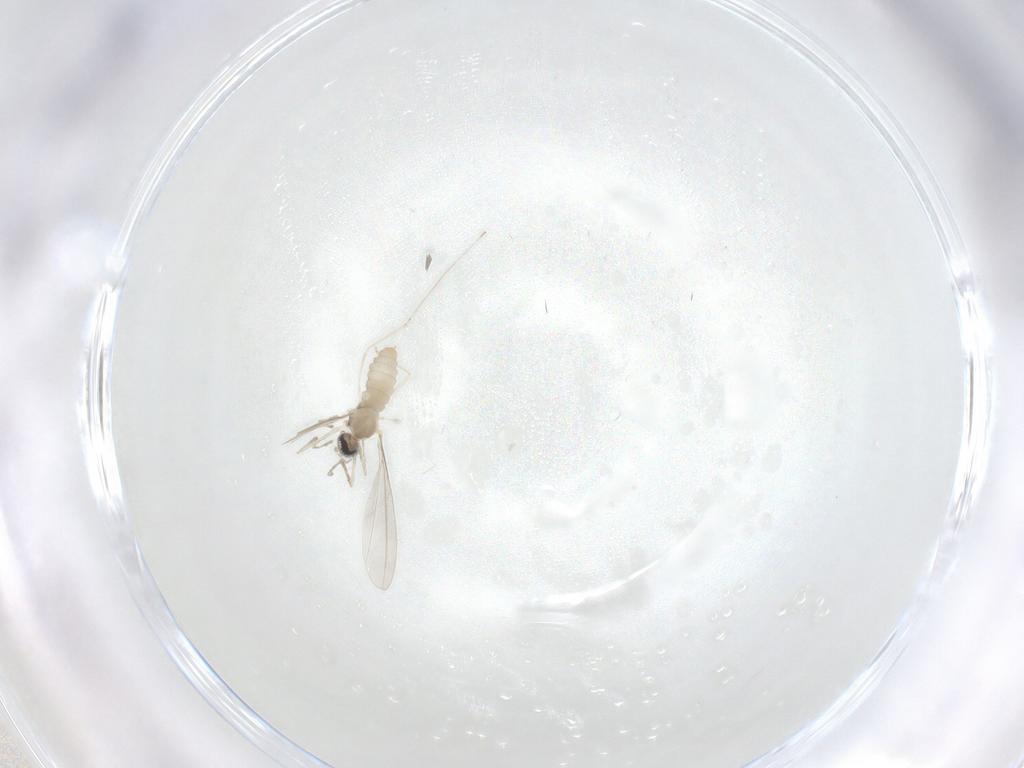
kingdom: Animalia
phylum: Arthropoda
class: Insecta
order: Diptera
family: Cecidomyiidae
